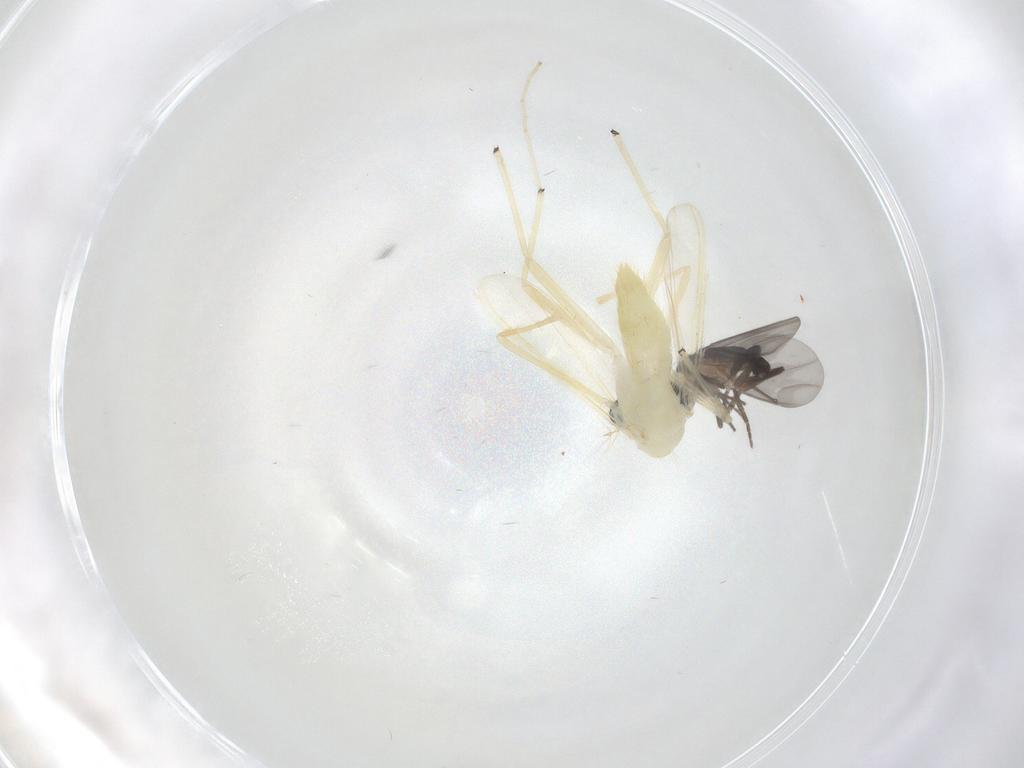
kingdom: Animalia
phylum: Arthropoda
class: Insecta
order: Diptera
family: Chironomidae
